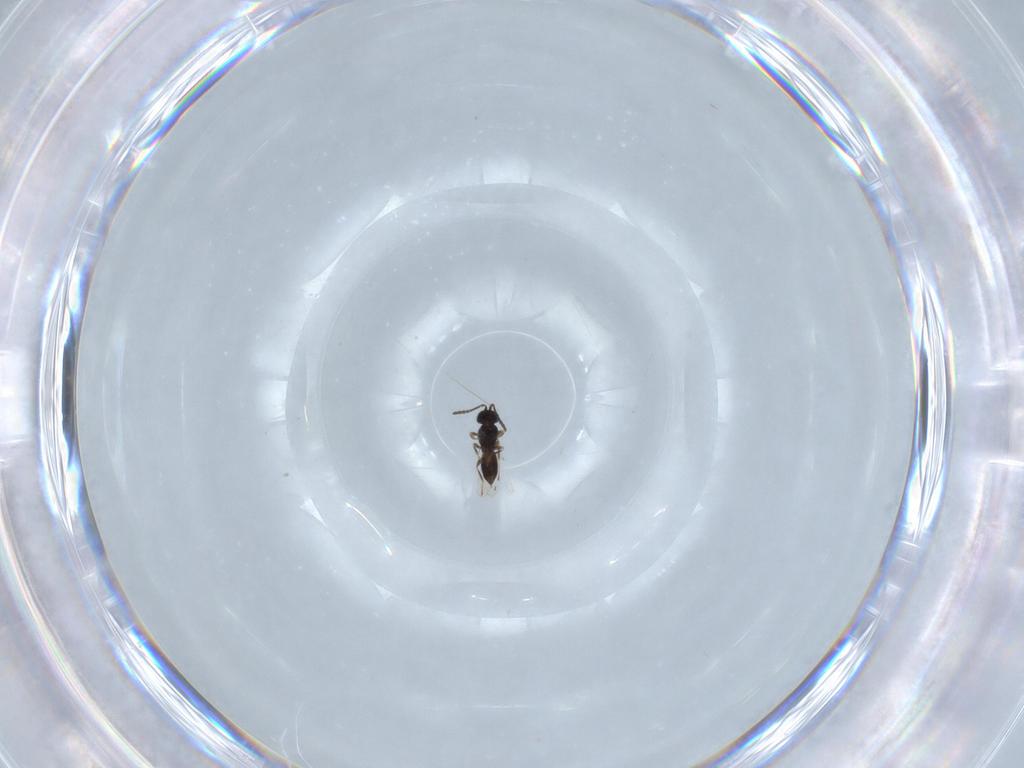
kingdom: Animalia
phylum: Arthropoda
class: Insecta
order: Hymenoptera
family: Scelionidae
